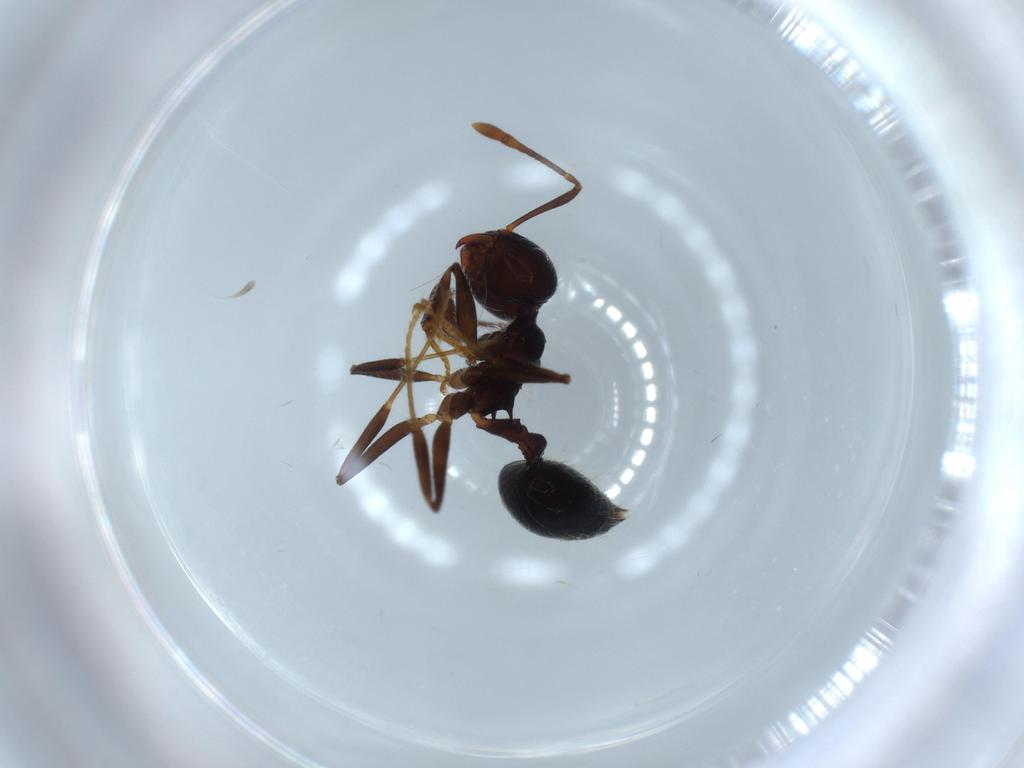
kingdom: Animalia
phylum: Arthropoda
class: Insecta
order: Hymenoptera
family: Formicidae
